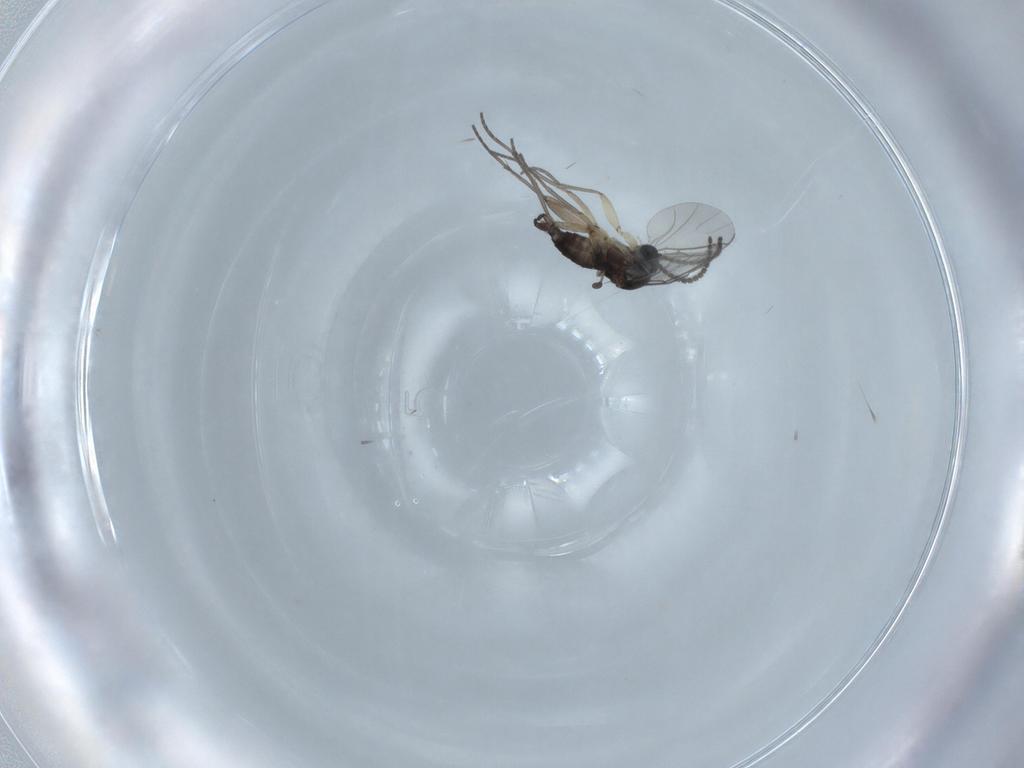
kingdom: Animalia
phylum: Arthropoda
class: Insecta
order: Diptera
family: Sciaridae
